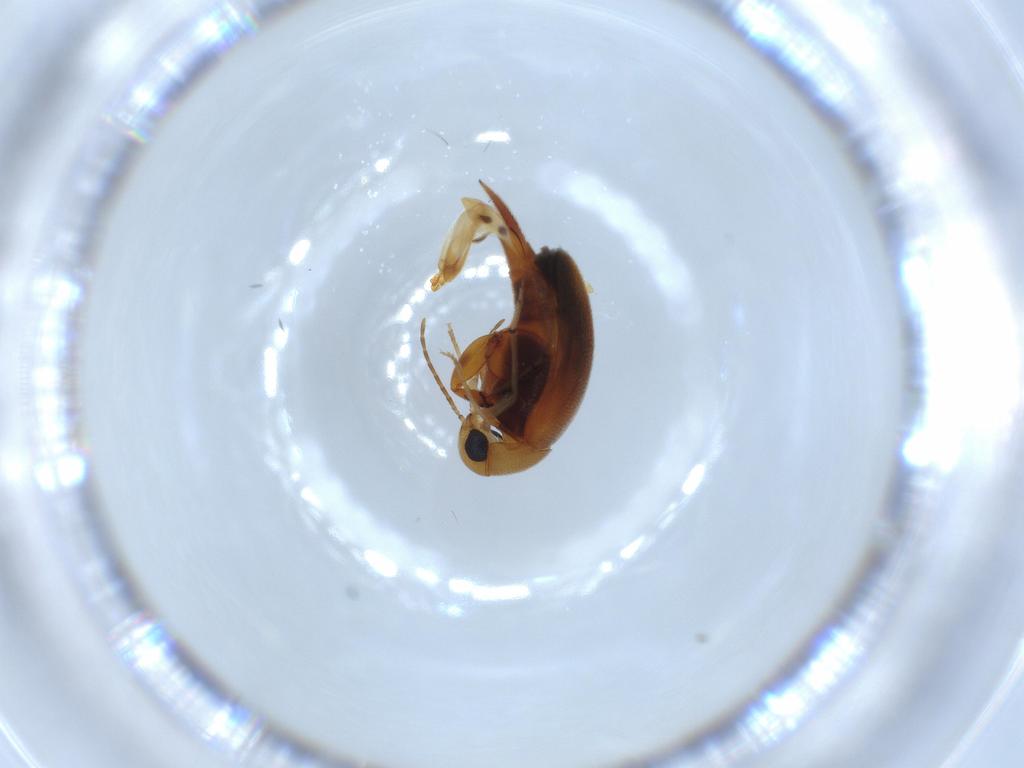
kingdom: Animalia
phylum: Arthropoda
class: Insecta
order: Coleoptera
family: Mordellidae
